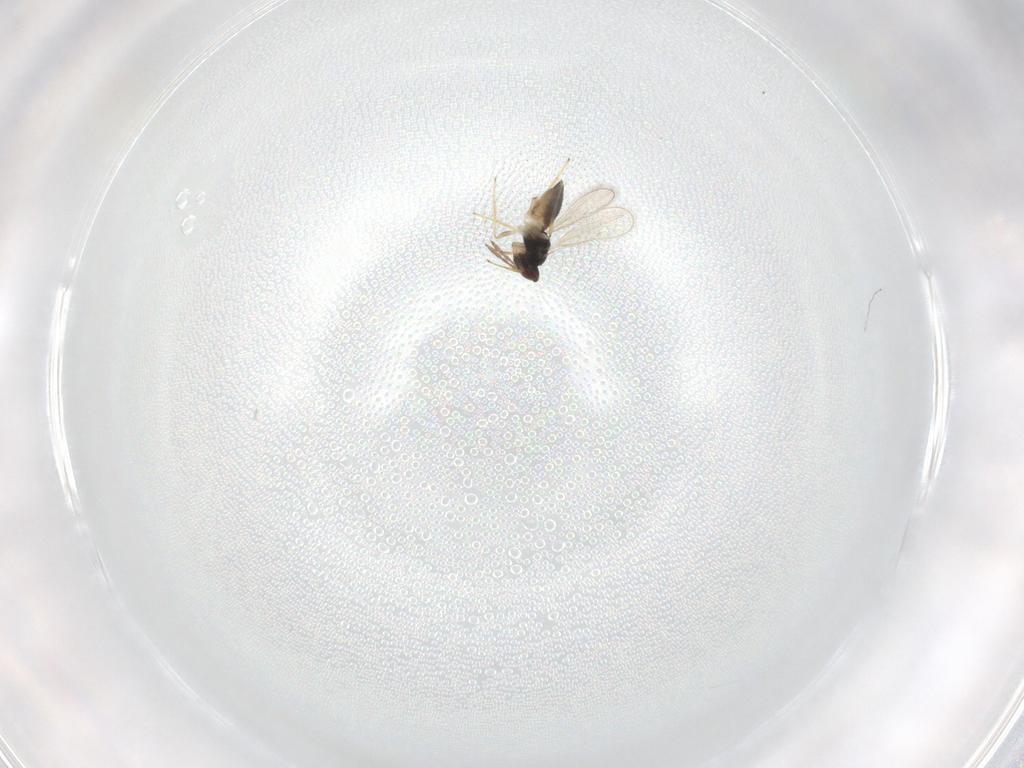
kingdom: Animalia
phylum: Arthropoda
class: Insecta
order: Hymenoptera
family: Eulophidae
